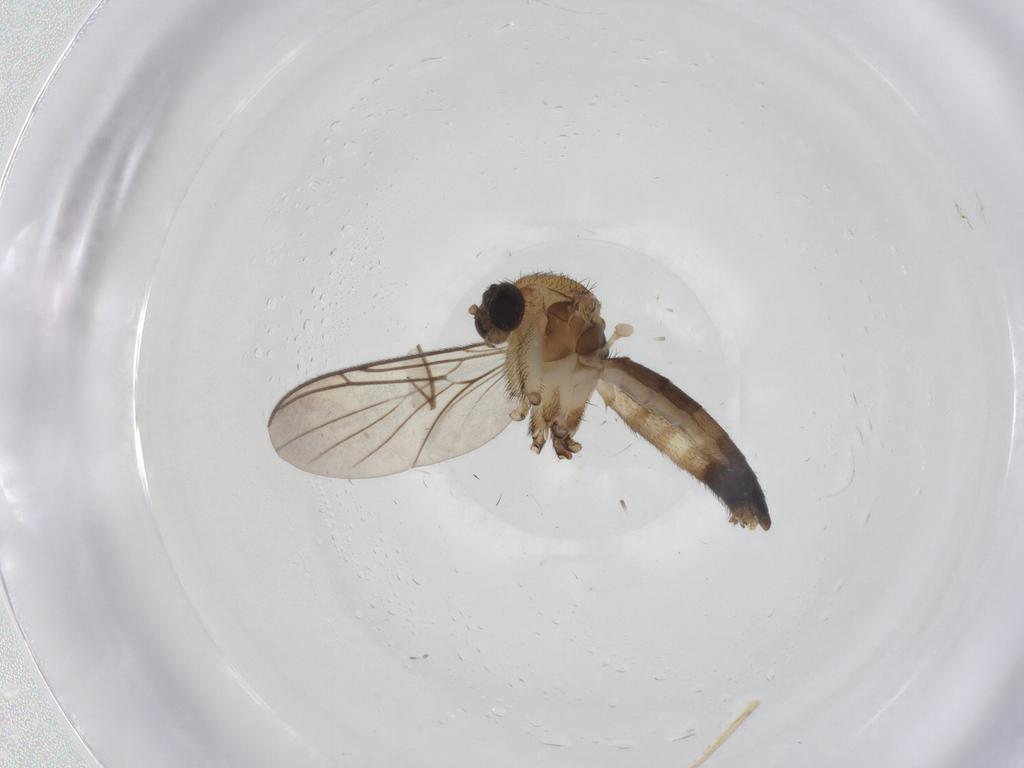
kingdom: Animalia
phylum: Arthropoda
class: Insecta
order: Diptera
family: Keroplatidae
